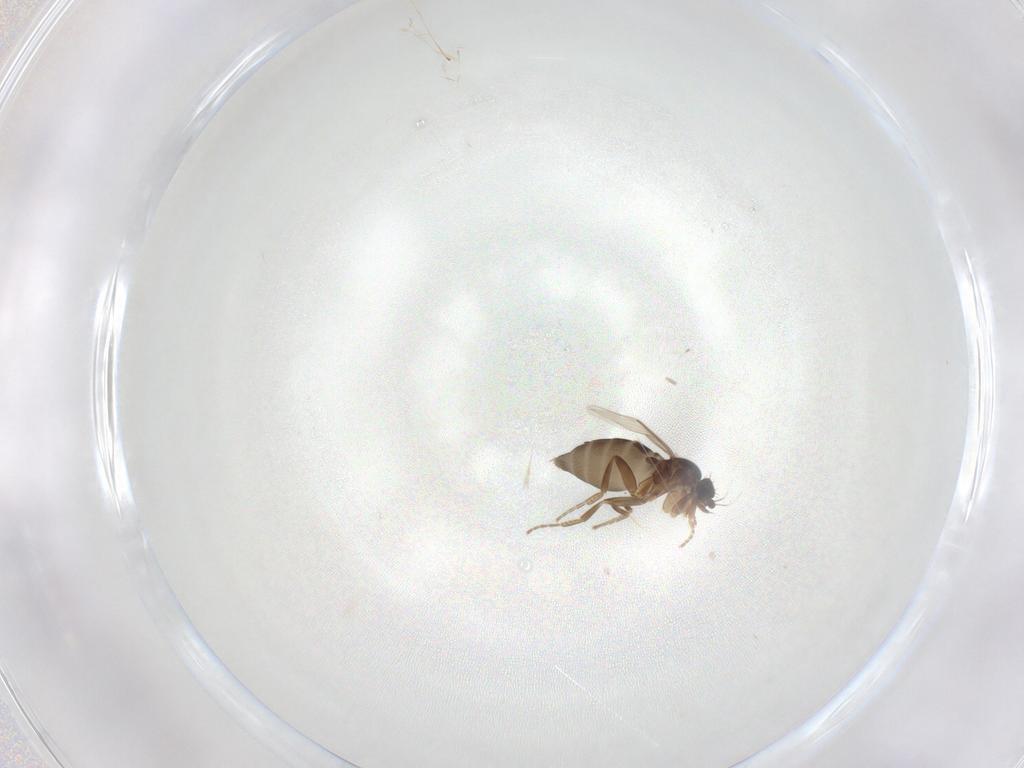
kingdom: Animalia
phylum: Arthropoda
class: Insecta
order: Diptera
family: Phoridae
